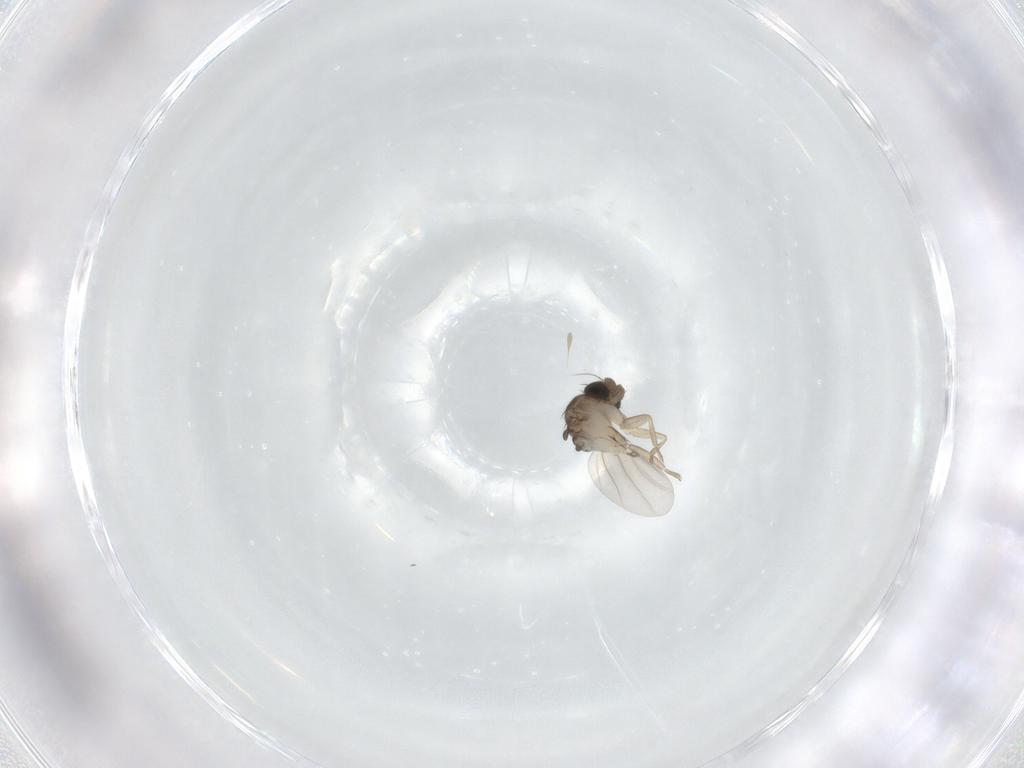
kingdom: Animalia
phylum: Arthropoda
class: Insecta
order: Diptera
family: Phoridae
